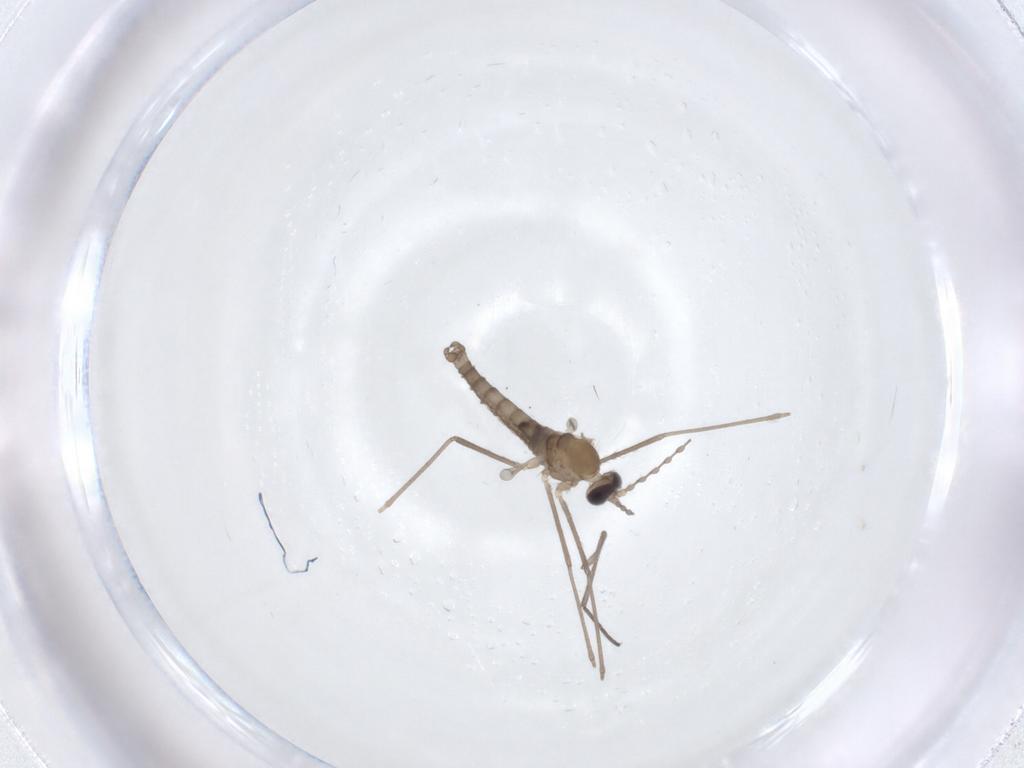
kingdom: Animalia
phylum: Arthropoda
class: Insecta
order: Diptera
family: Cecidomyiidae
